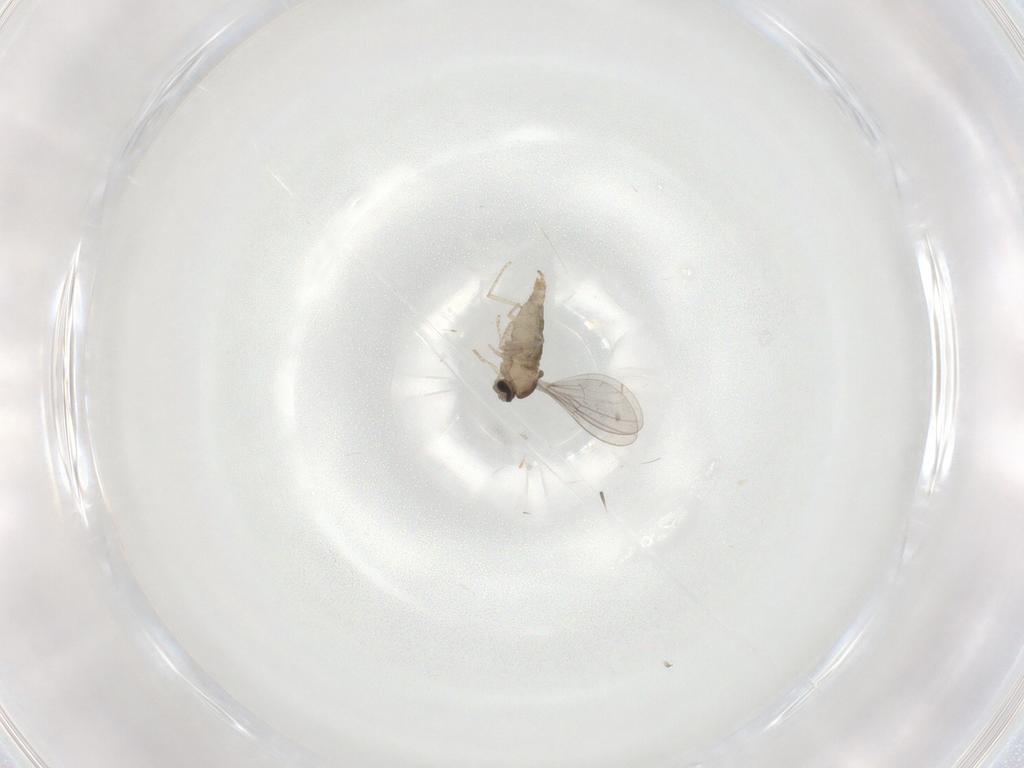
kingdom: Animalia
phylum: Arthropoda
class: Insecta
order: Diptera
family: Cecidomyiidae
